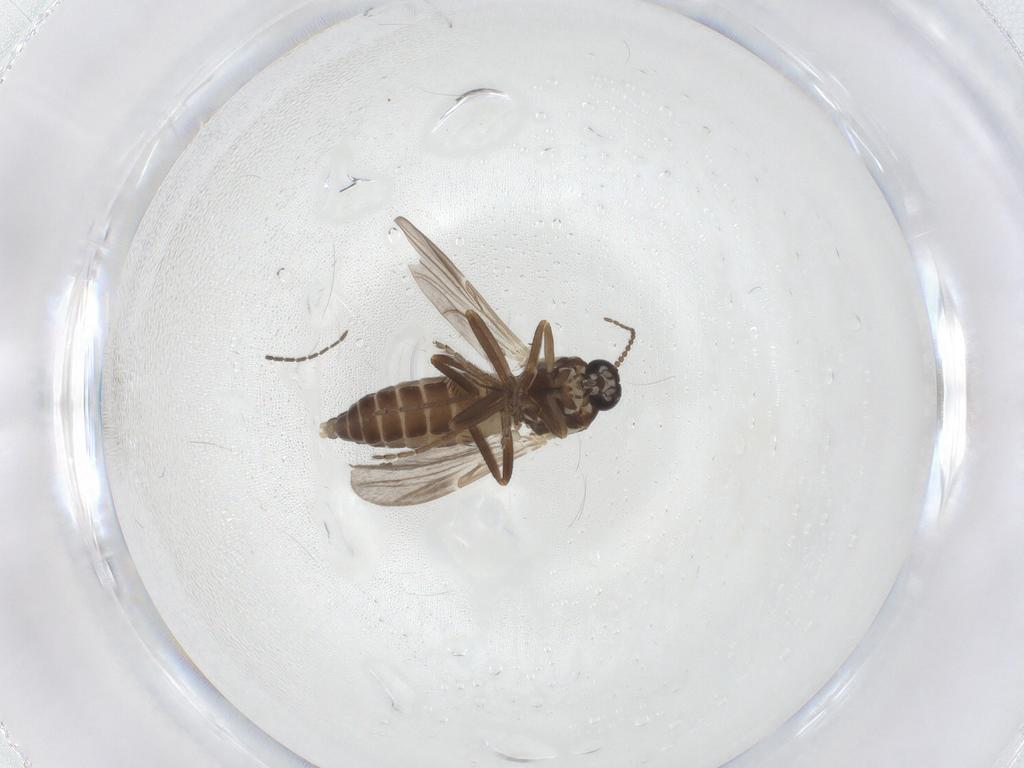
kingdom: Animalia
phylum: Arthropoda
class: Insecta
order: Diptera
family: Ceratopogonidae
